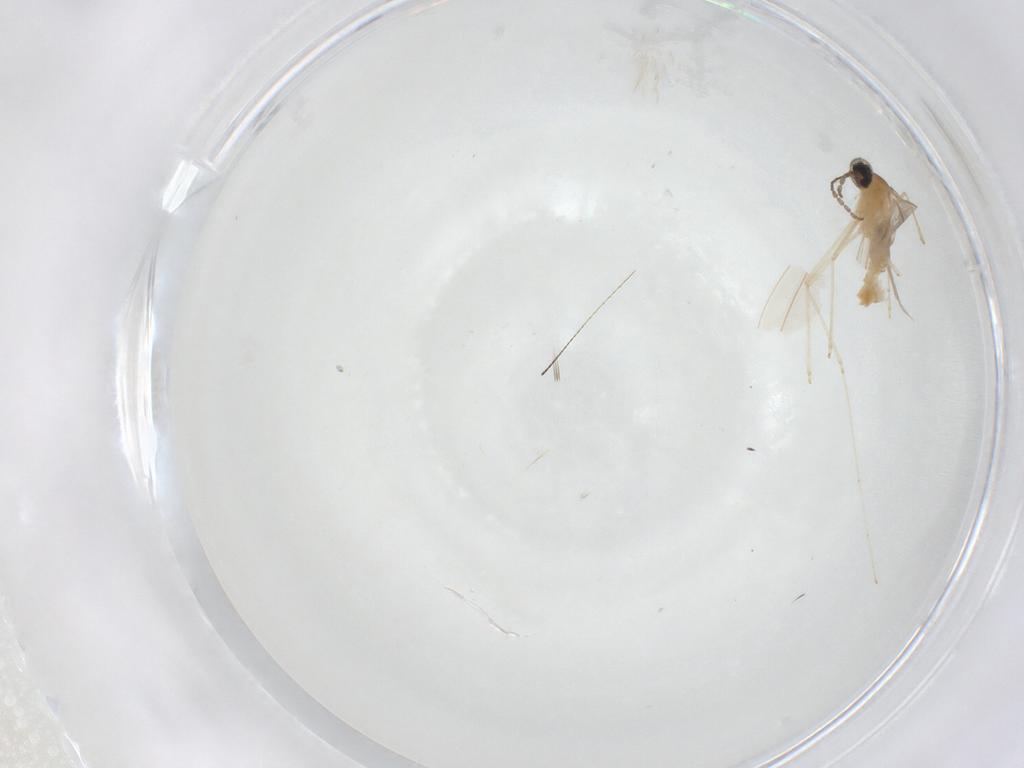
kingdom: Animalia
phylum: Arthropoda
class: Insecta
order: Diptera
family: Cecidomyiidae
